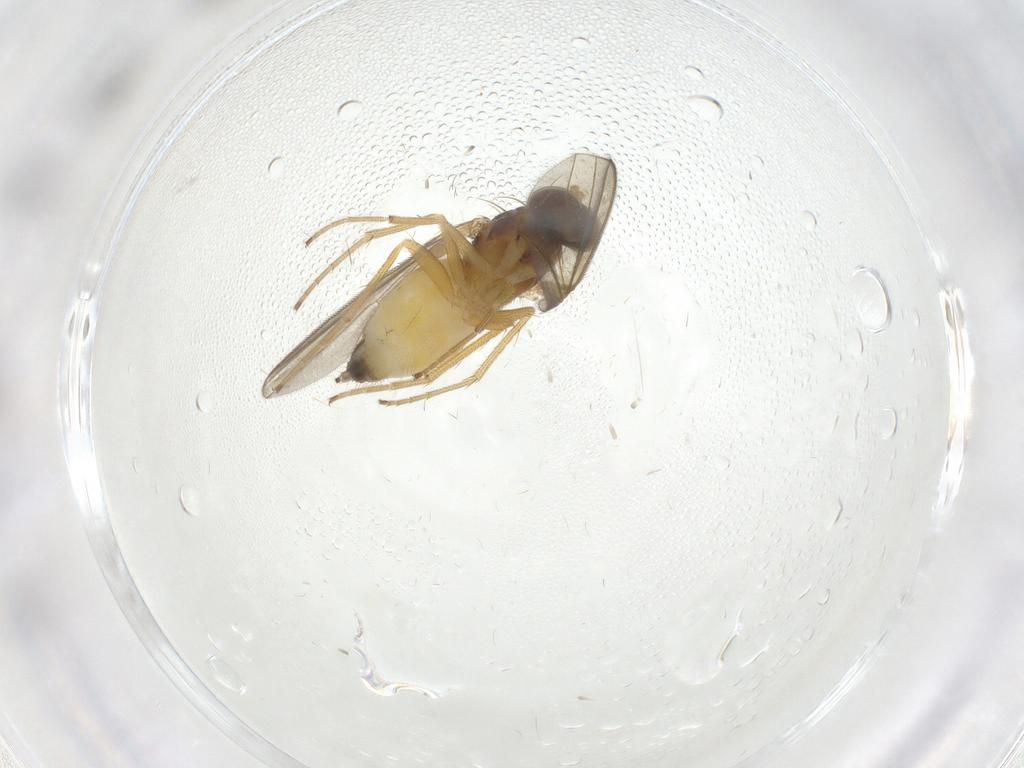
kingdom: Animalia
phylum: Arthropoda
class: Insecta
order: Diptera
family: Dolichopodidae
